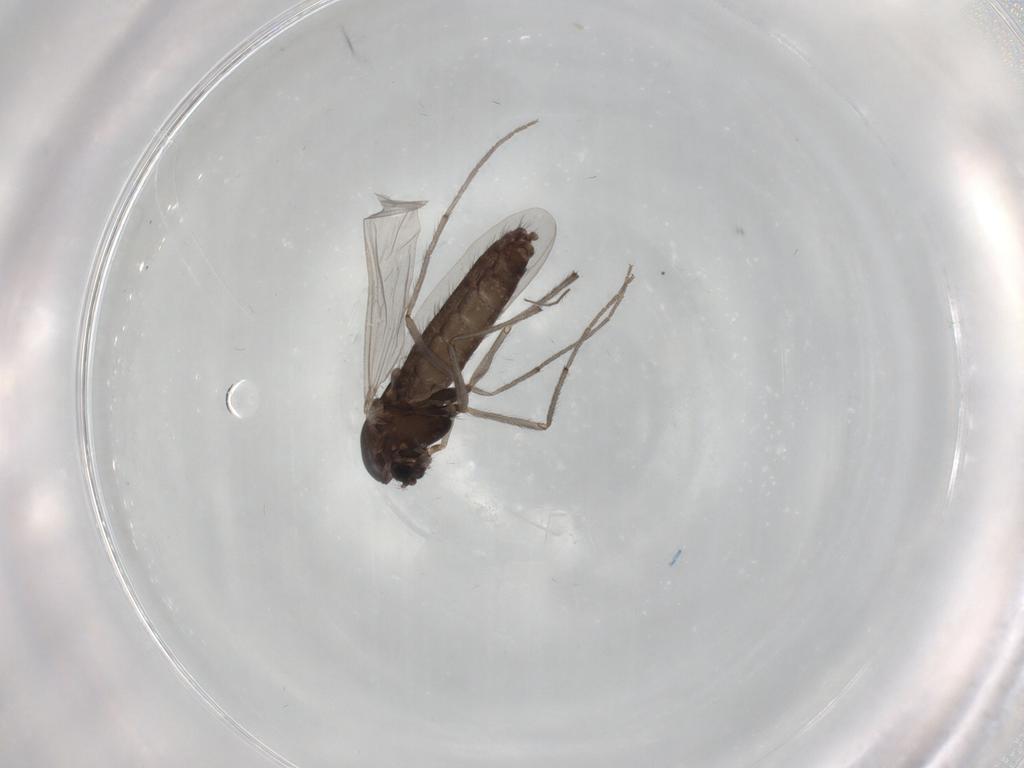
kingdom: Animalia
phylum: Arthropoda
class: Insecta
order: Diptera
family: Chironomidae
